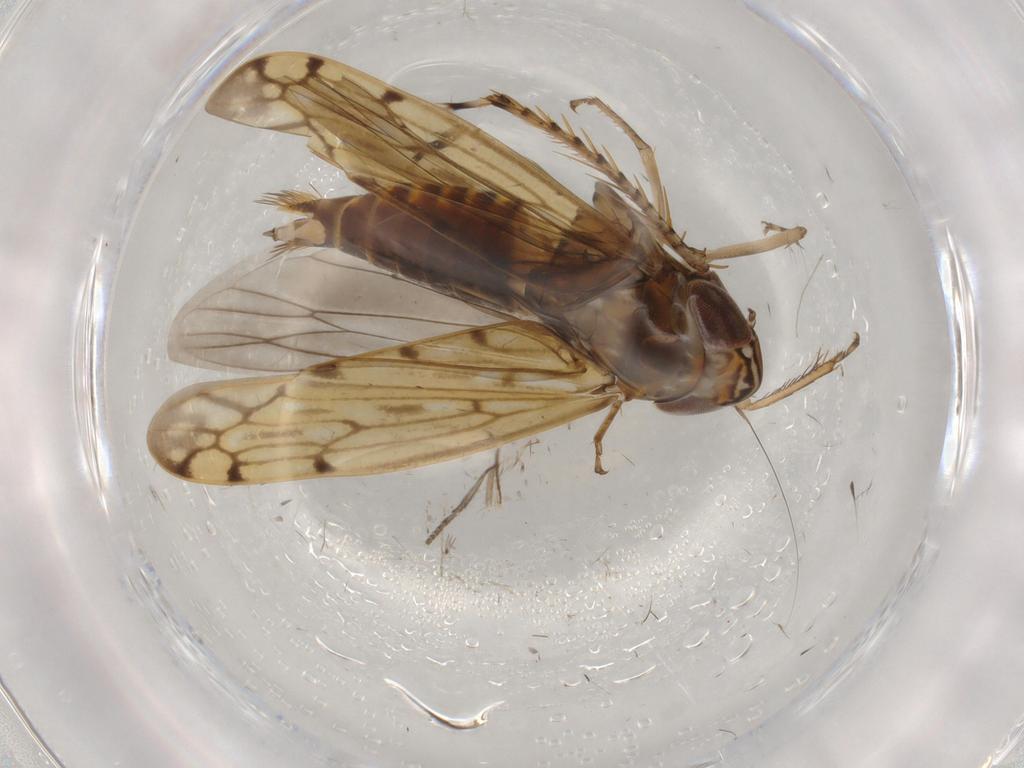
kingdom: Animalia
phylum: Arthropoda
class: Insecta
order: Hemiptera
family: Cicadellidae
